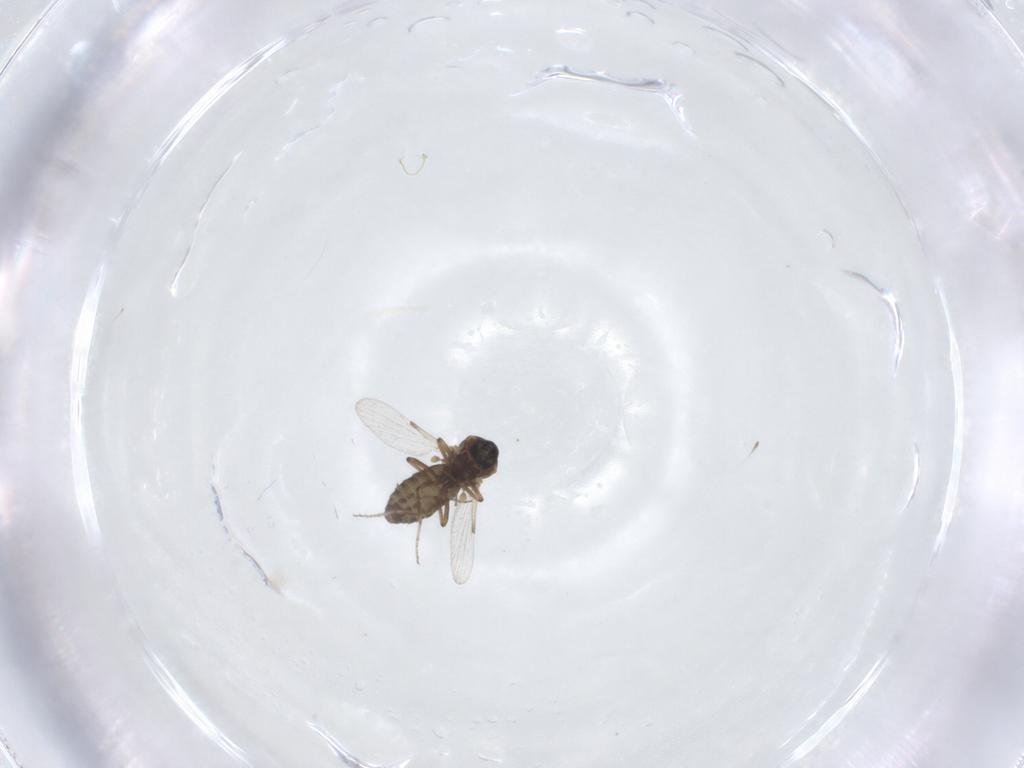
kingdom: Animalia
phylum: Arthropoda
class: Insecta
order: Diptera
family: Ceratopogonidae
